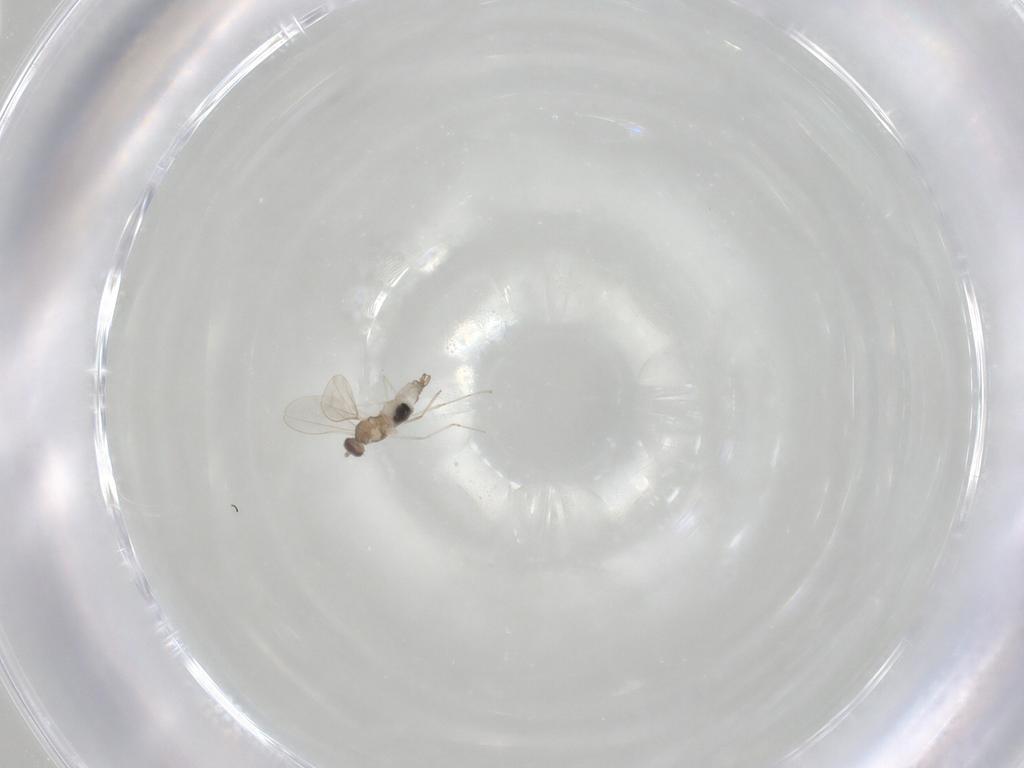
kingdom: Animalia
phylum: Arthropoda
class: Insecta
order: Diptera
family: Cecidomyiidae
